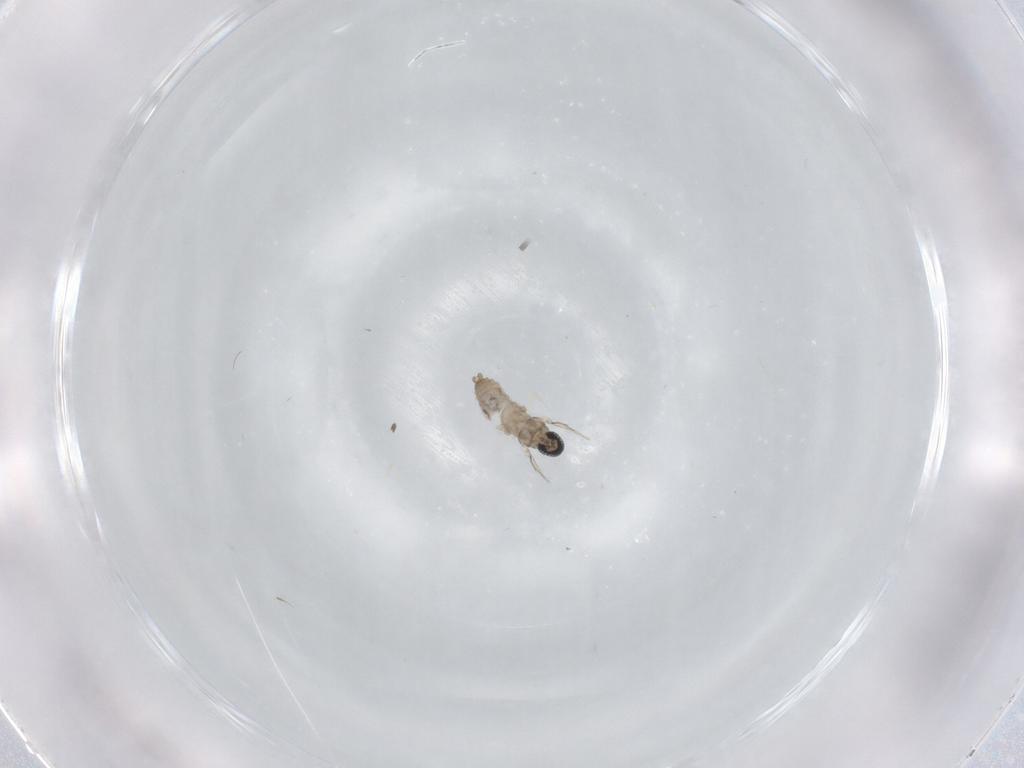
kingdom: Animalia
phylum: Arthropoda
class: Insecta
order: Diptera
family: Cecidomyiidae
